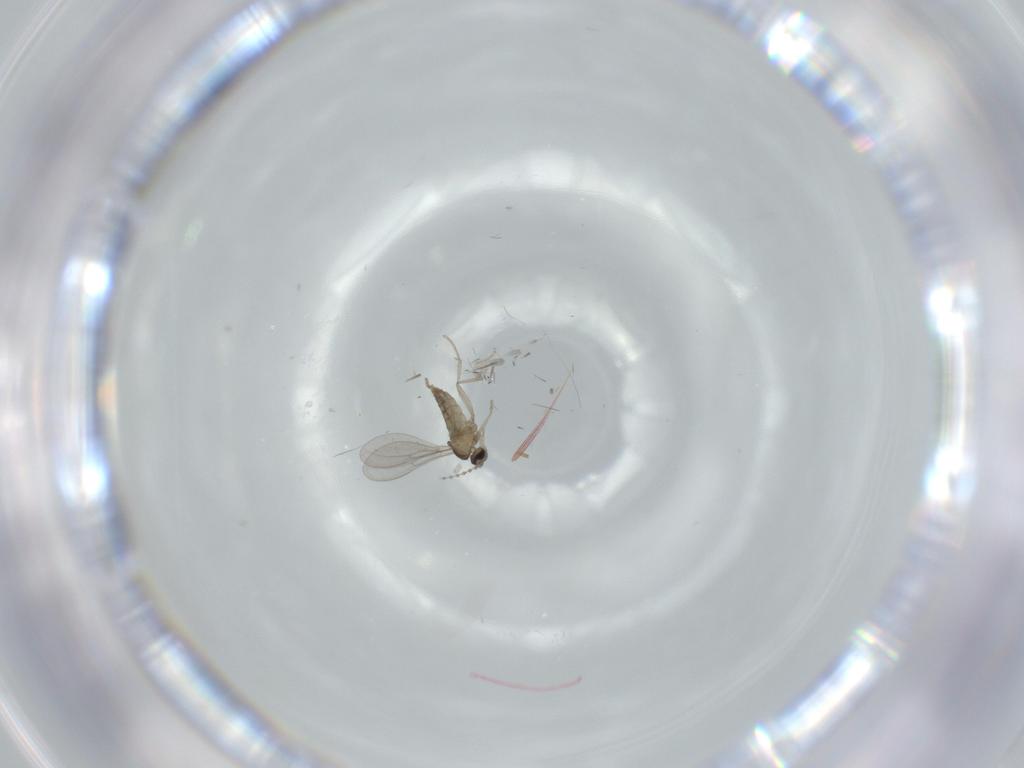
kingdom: Animalia
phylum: Arthropoda
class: Insecta
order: Diptera
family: Cecidomyiidae
